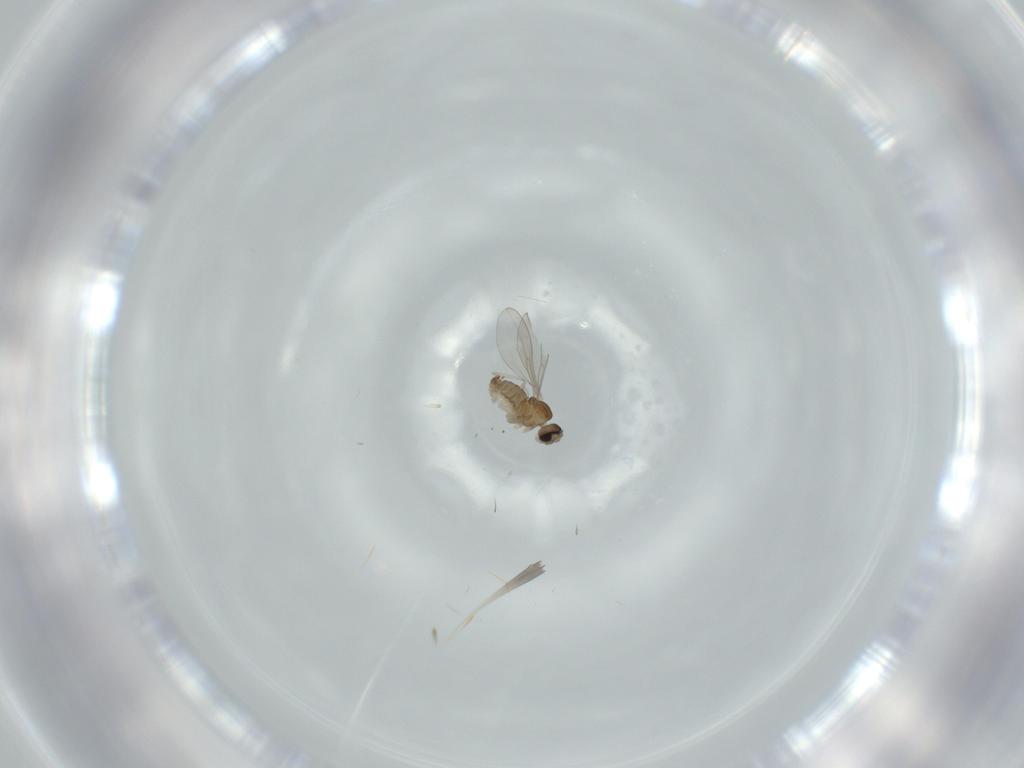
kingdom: Animalia
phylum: Arthropoda
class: Insecta
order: Diptera
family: Cecidomyiidae
